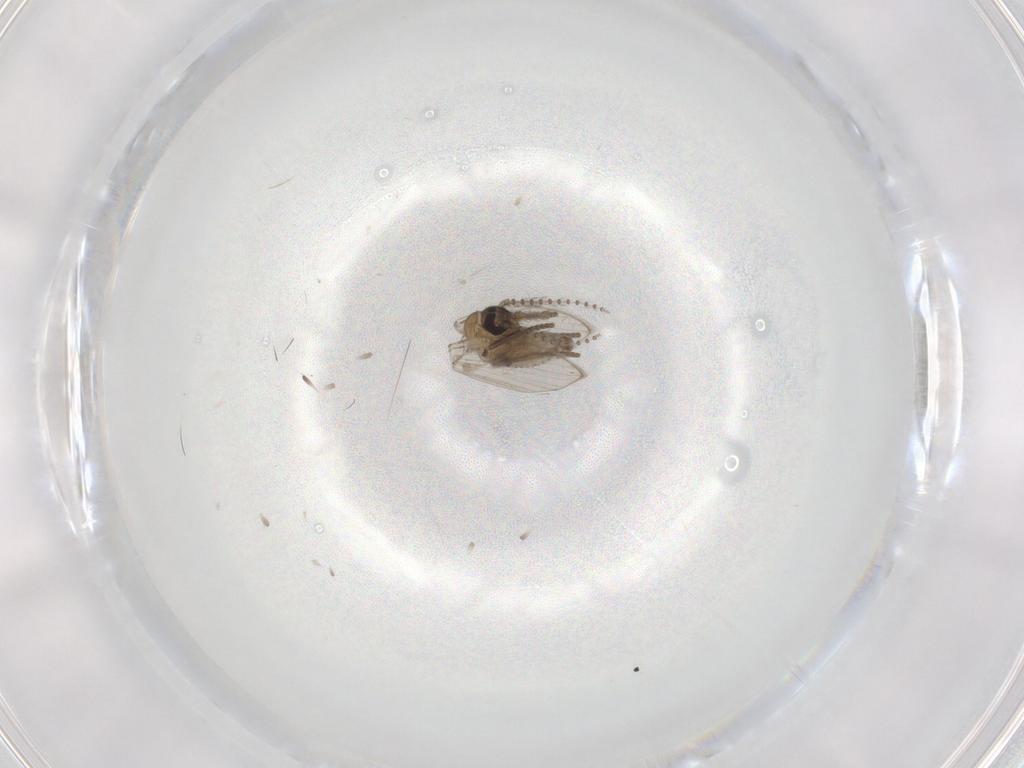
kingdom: Animalia
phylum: Arthropoda
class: Insecta
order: Diptera
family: Psychodidae
